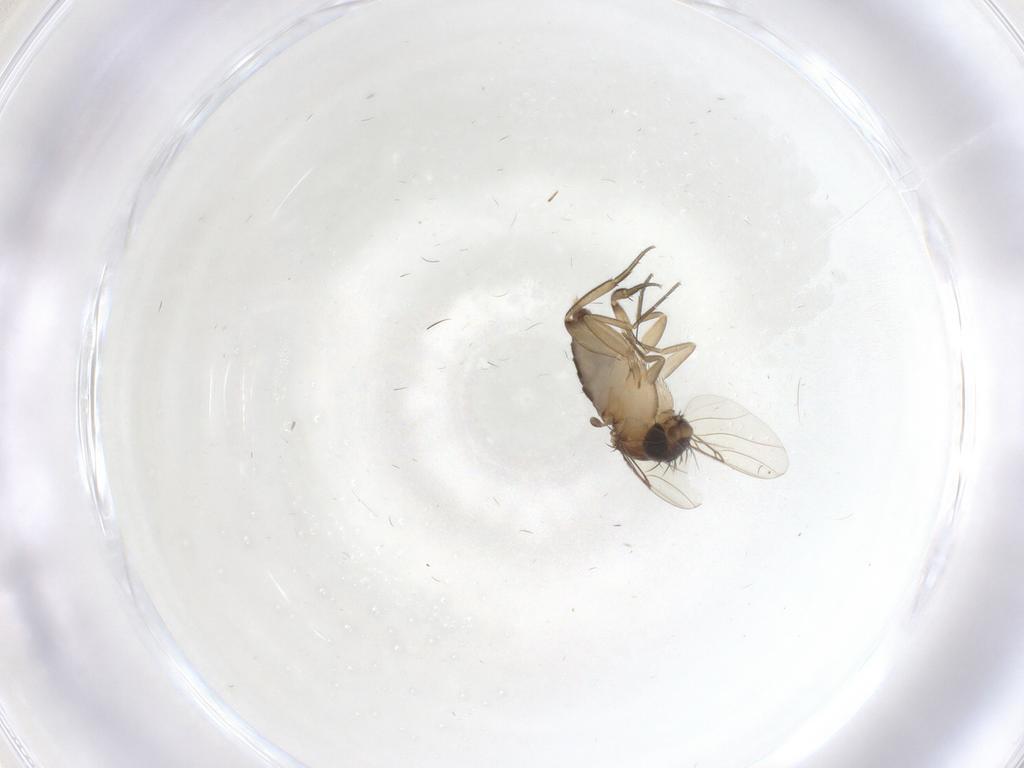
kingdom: Animalia
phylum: Arthropoda
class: Insecta
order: Diptera
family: Phoridae
